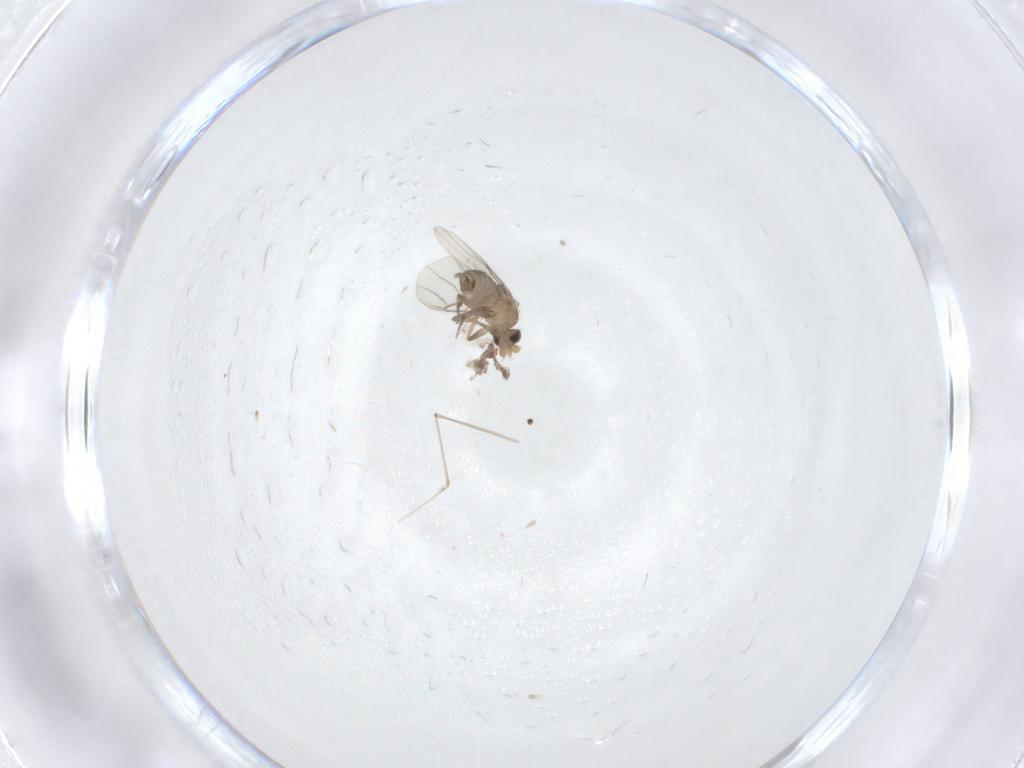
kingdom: Animalia
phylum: Arthropoda
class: Insecta
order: Diptera
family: Phoridae
